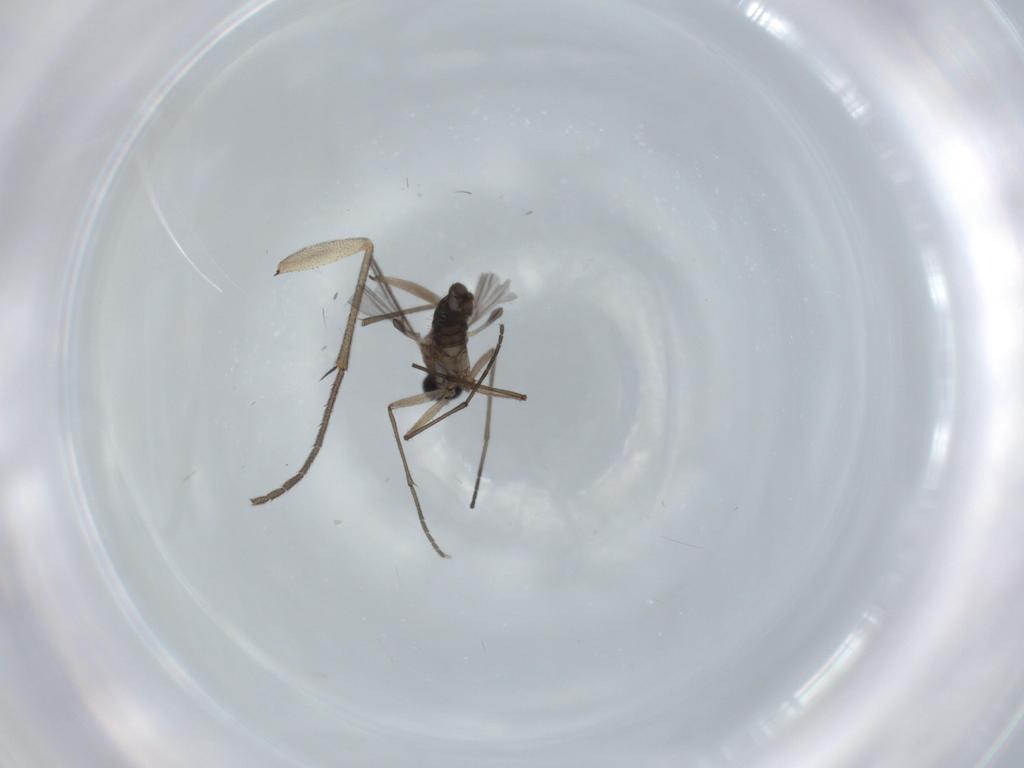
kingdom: Animalia
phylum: Arthropoda
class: Insecta
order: Diptera
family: Diadocidiidae
